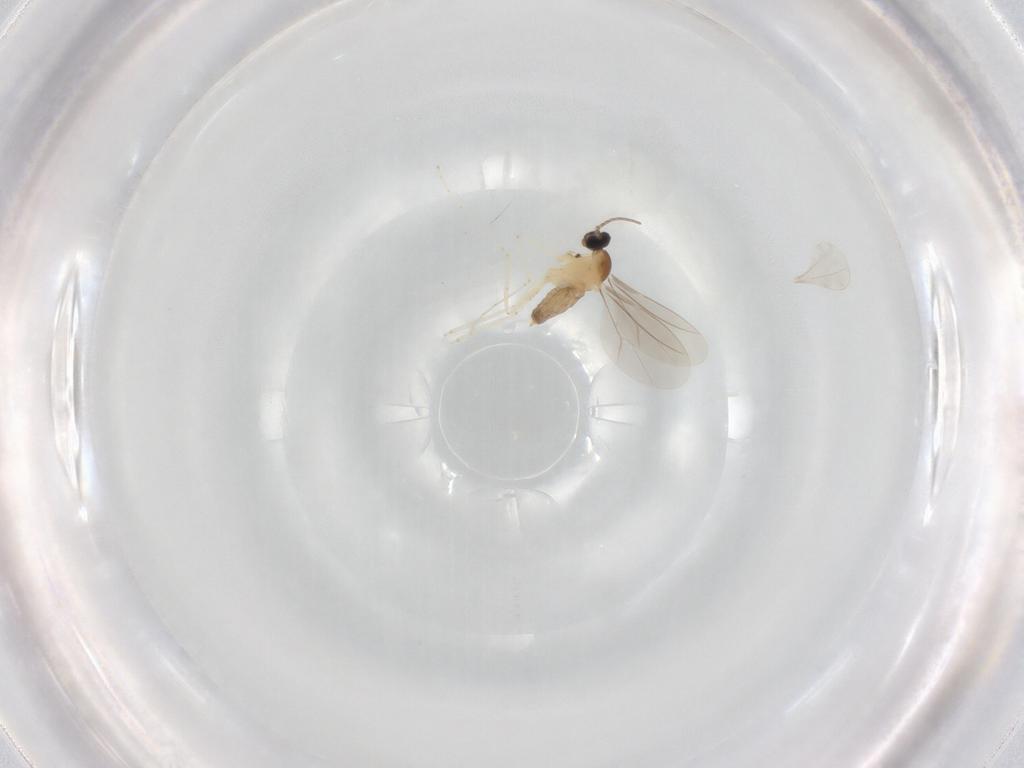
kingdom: Animalia
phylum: Arthropoda
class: Insecta
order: Diptera
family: Cecidomyiidae
